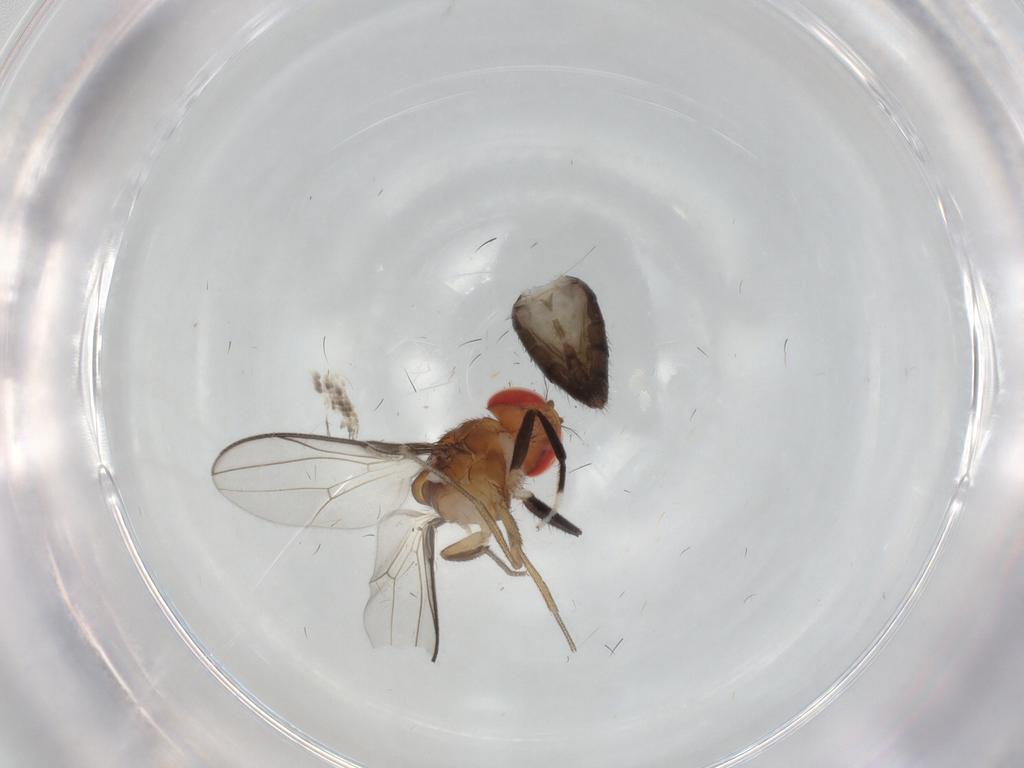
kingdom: Animalia
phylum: Arthropoda
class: Insecta
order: Diptera
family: Drosophilidae
